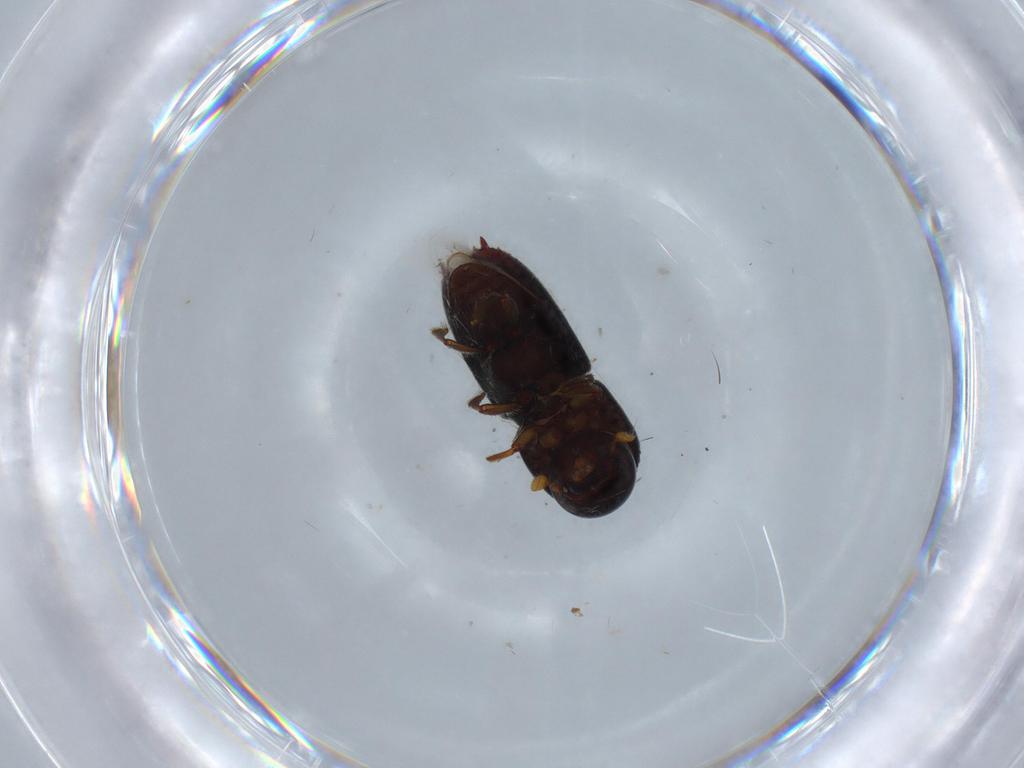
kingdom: Animalia
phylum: Arthropoda
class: Insecta
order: Coleoptera
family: Curculionidae
